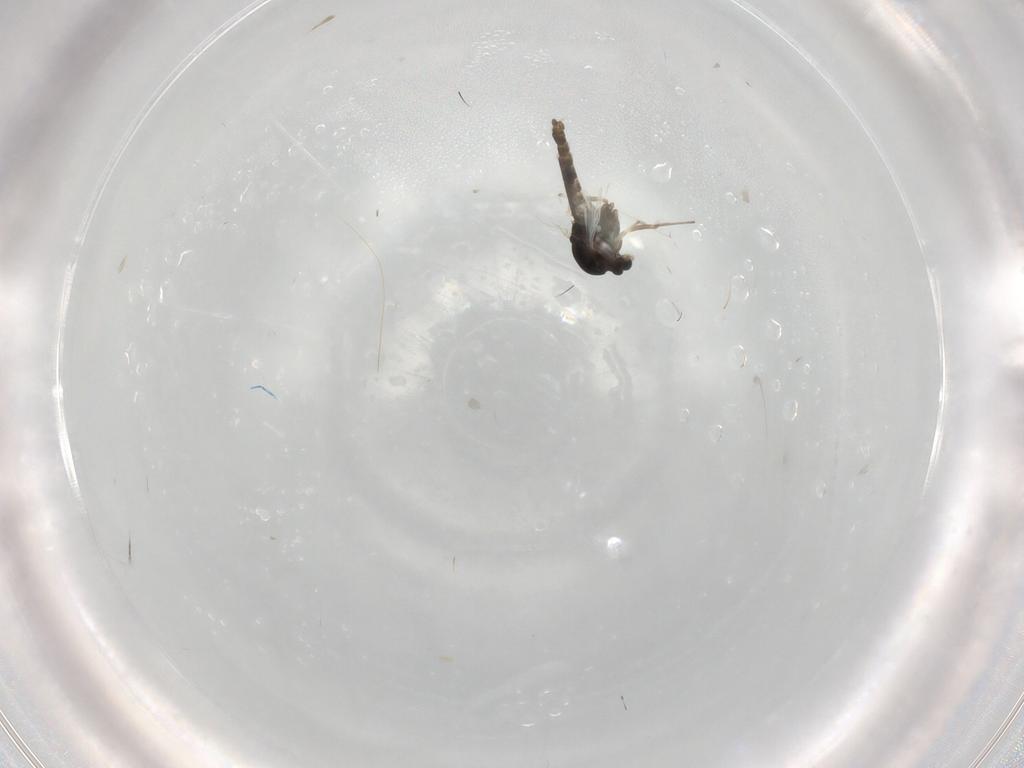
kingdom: Animalia
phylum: Arthropoda
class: Insecta
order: Diptera
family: Chironomidae
